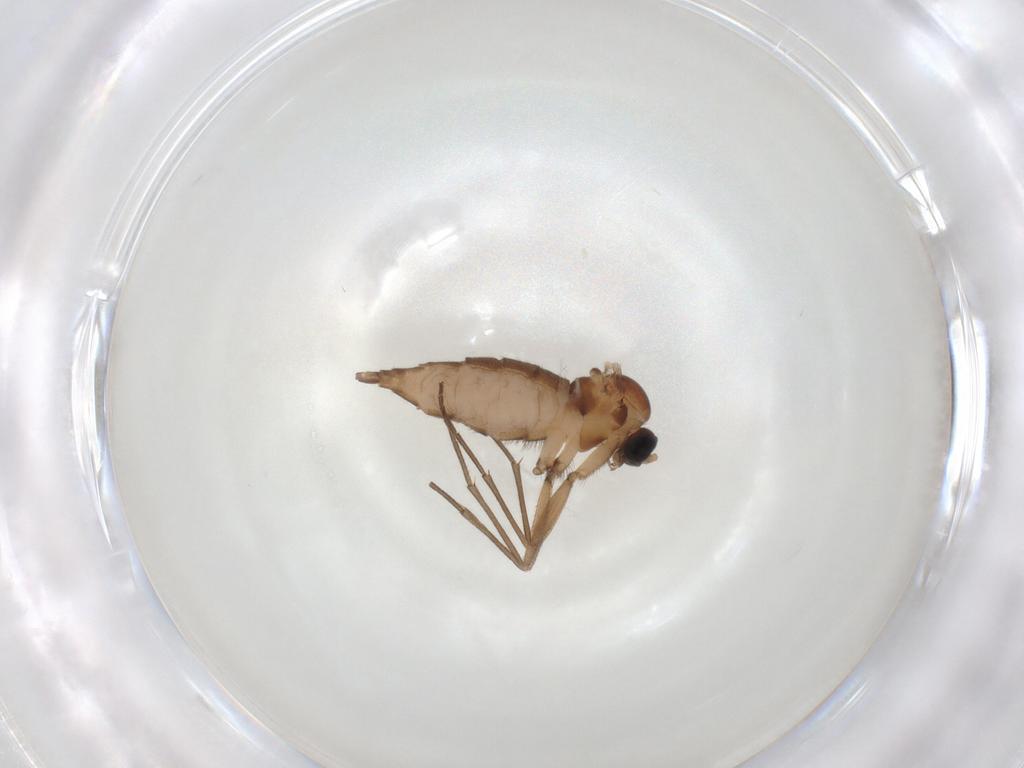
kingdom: Animalia
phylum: Arthropoda
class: Insecta
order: Diptera
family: Sciaridae
